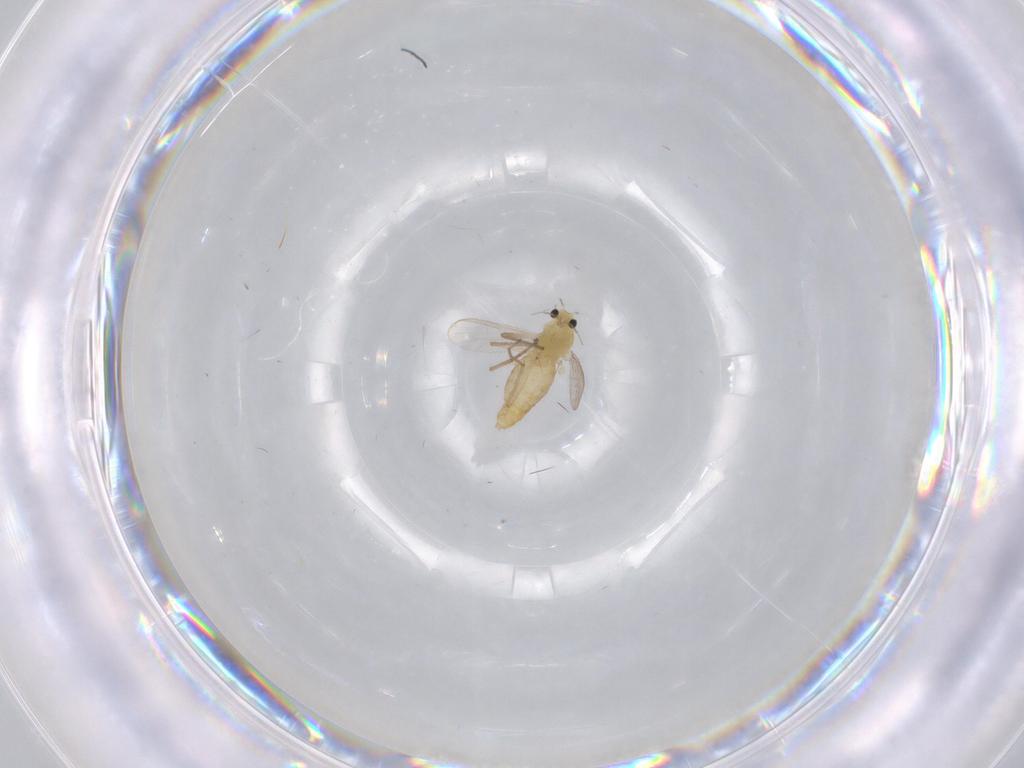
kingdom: Animalia
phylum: Arthropoda
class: Insecta
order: Diptera
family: Chironomidae
